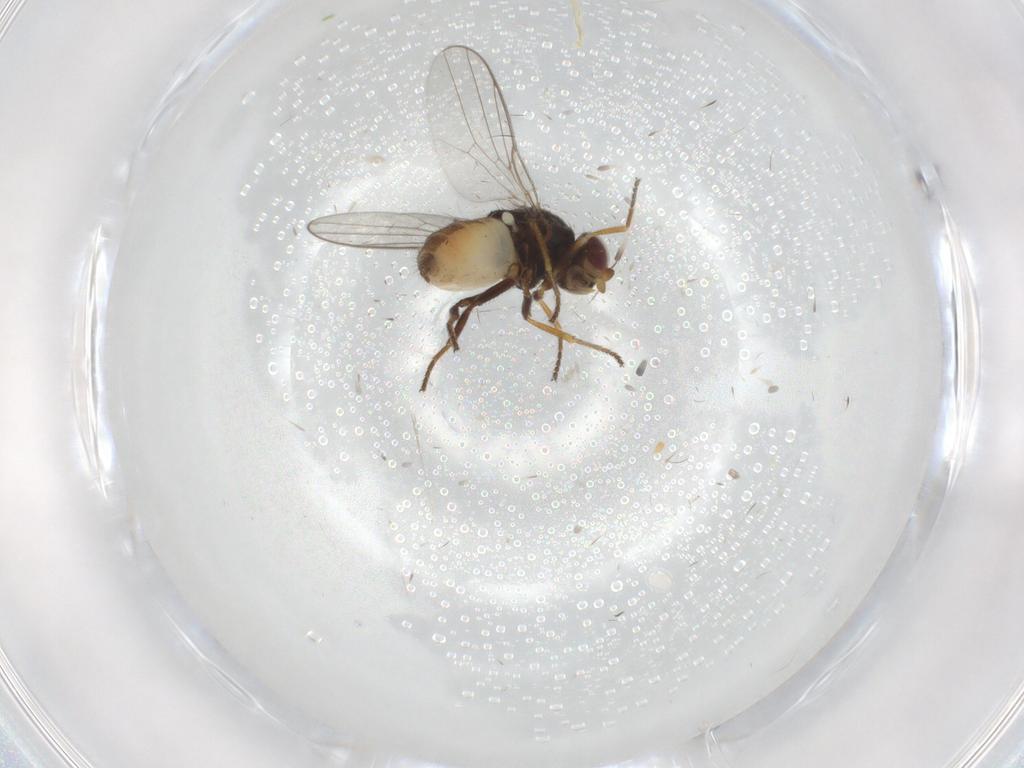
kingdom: Animalia
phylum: Arthropoda
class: Insecta
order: Diptera
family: Chloropidae
